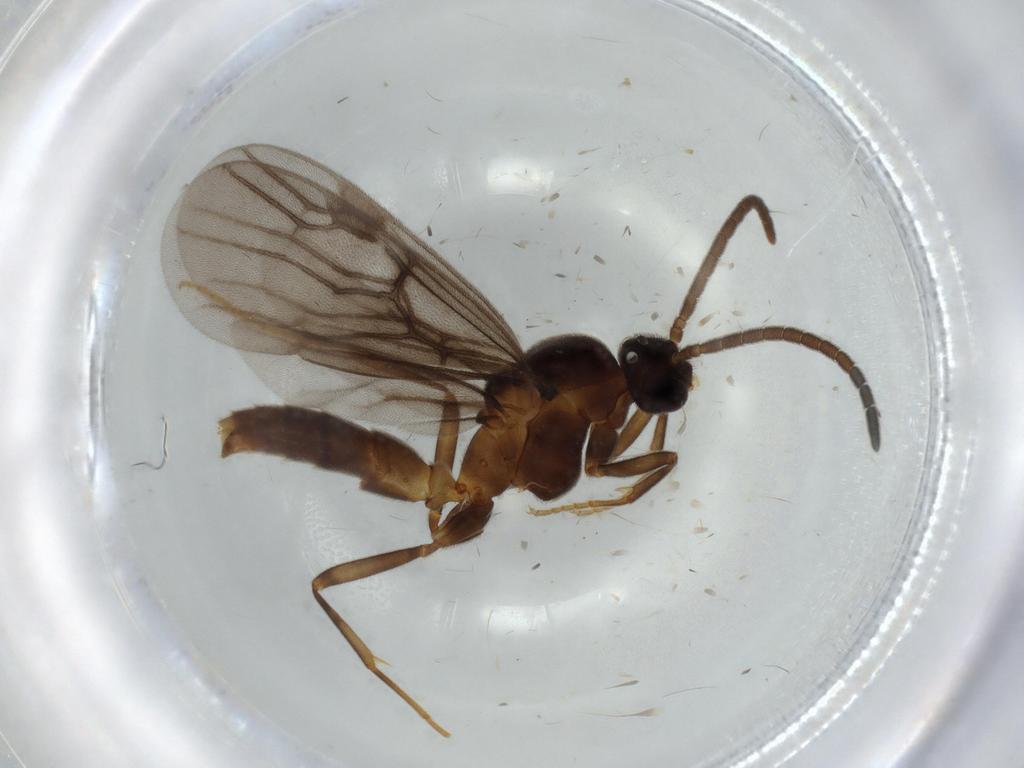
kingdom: Animalia
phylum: Arthropoda
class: Insecta
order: Hymenoptera
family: Formicidae
